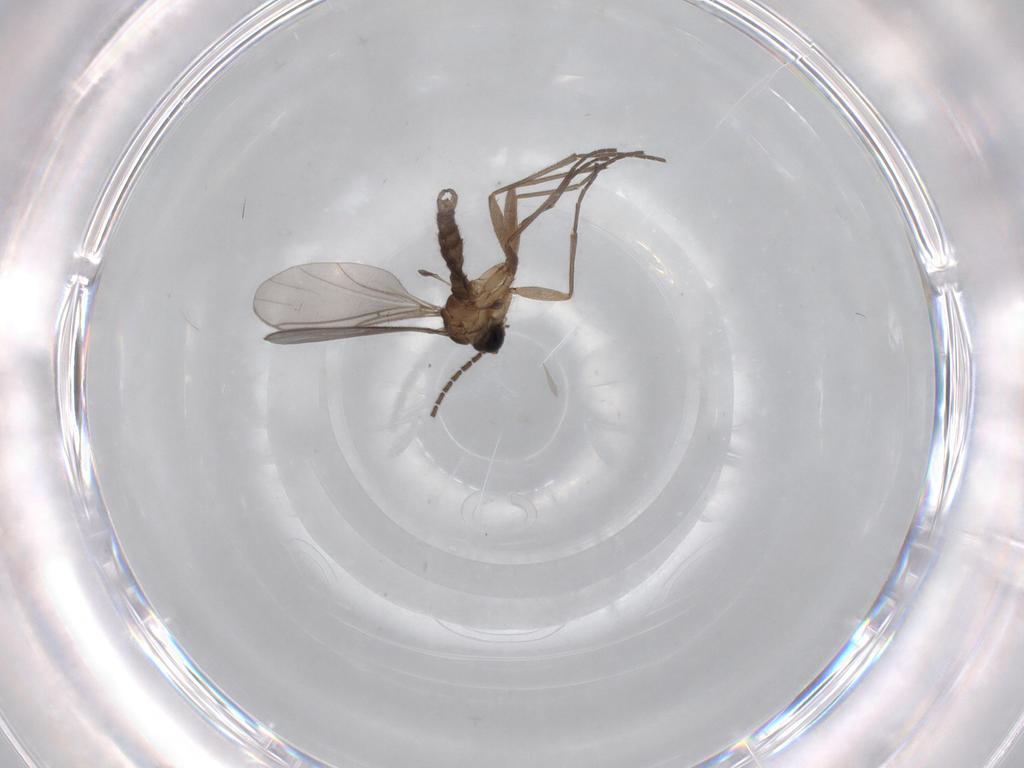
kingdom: Animalia
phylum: Arthropoda
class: Insecta
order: Diptera
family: Sciaridae
